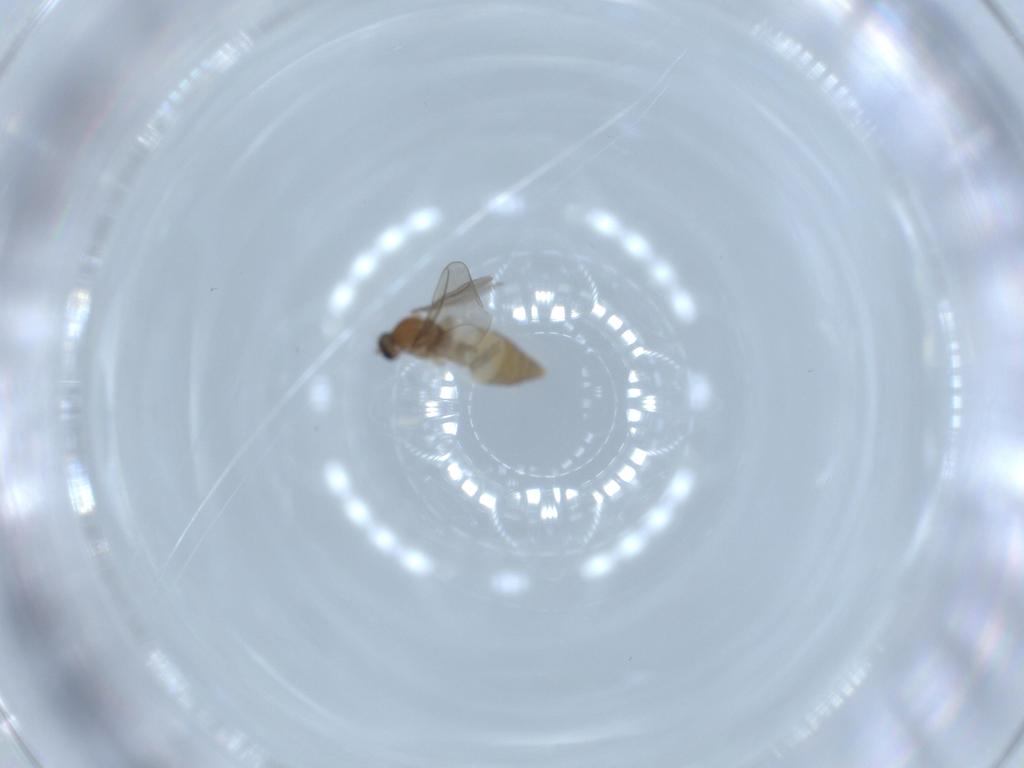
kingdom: Animalia
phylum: Arthropoda
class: Insecta
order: Diptera
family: Cecidomyiidae
